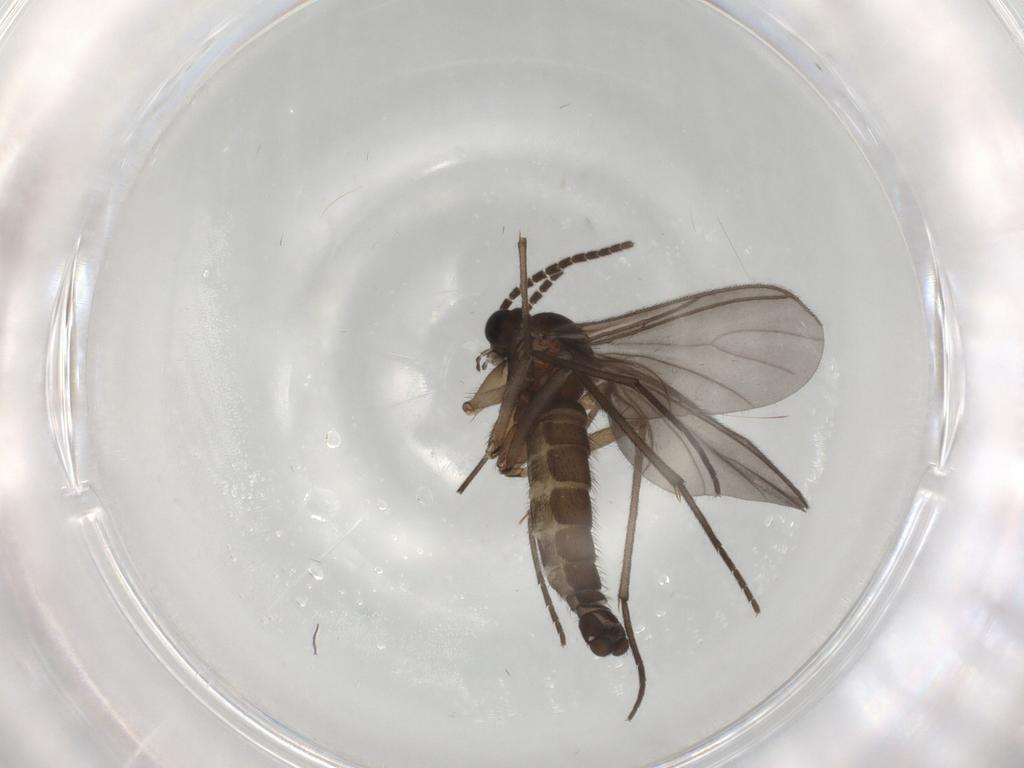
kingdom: Animalia
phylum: Arthropoda
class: Insecta
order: Diptera
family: Sciaridae
